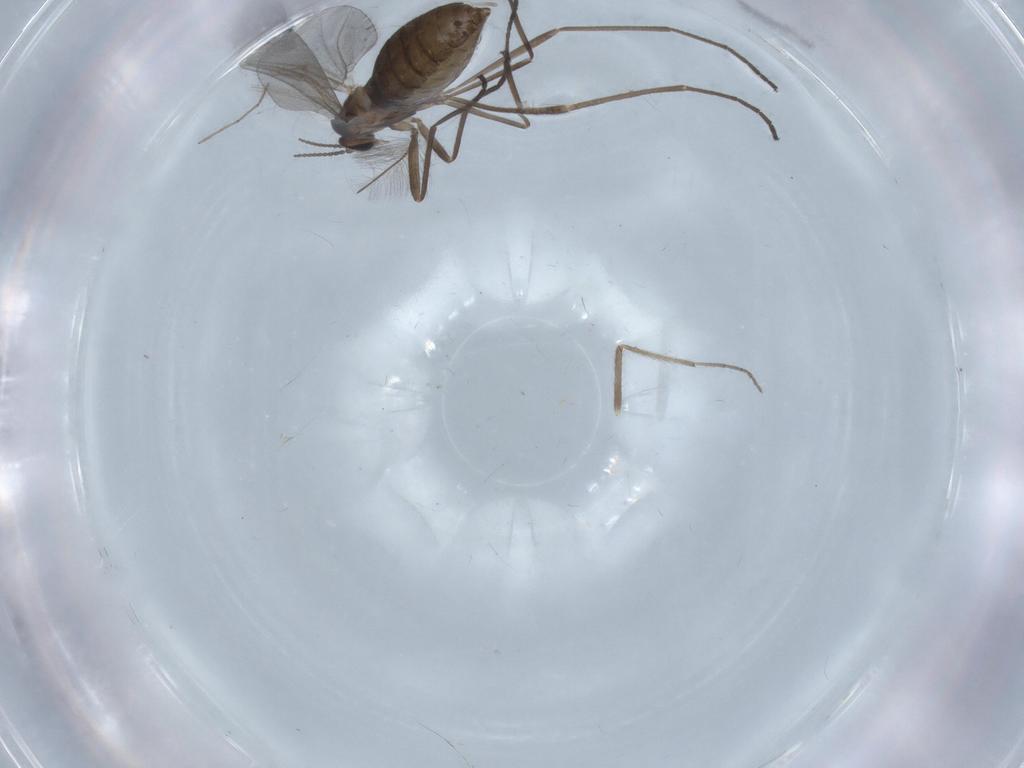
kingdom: Animalia
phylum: Arthropoda
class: Insecta
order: Diptera
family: Cecidomyiidae
